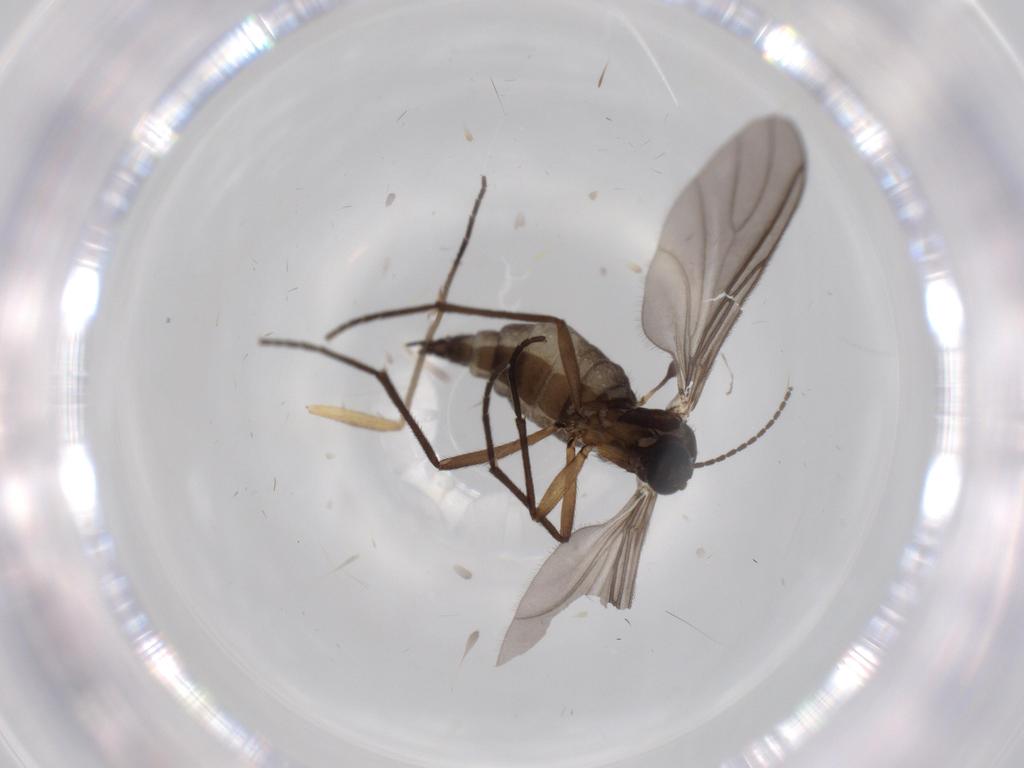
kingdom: Animalia
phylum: Arthropoda
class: Insecta
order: Diptera
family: Sciaridae
